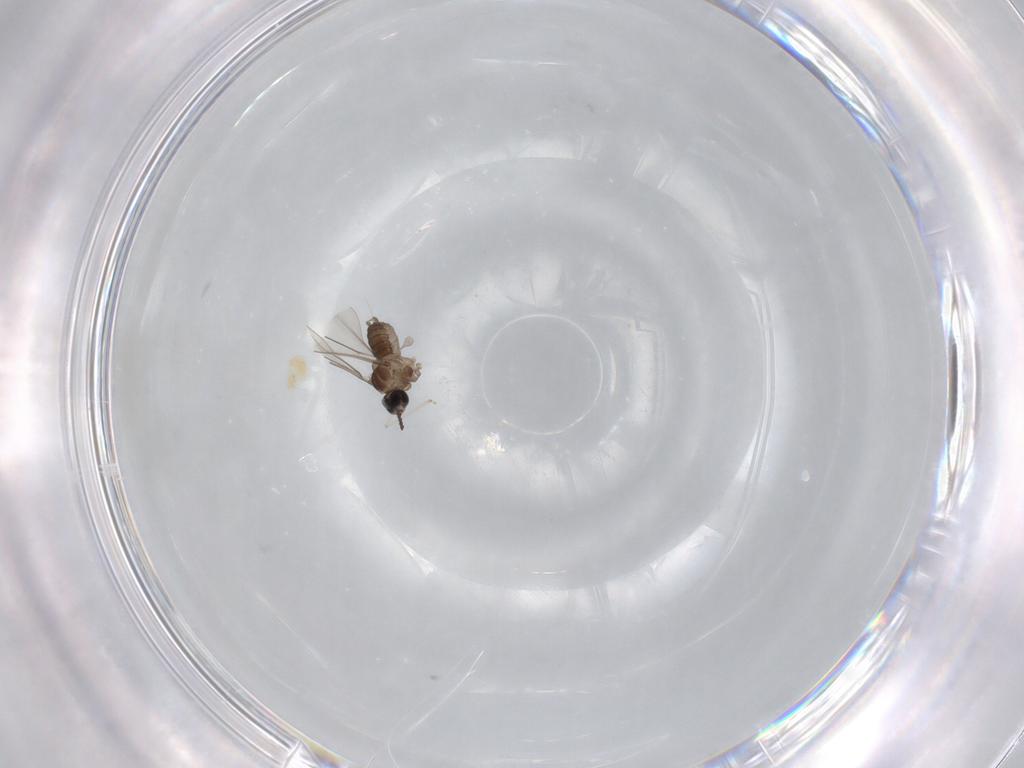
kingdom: Animalia
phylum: Arthropoda
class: Insecta
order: Diptera
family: Cecidomyiidae
